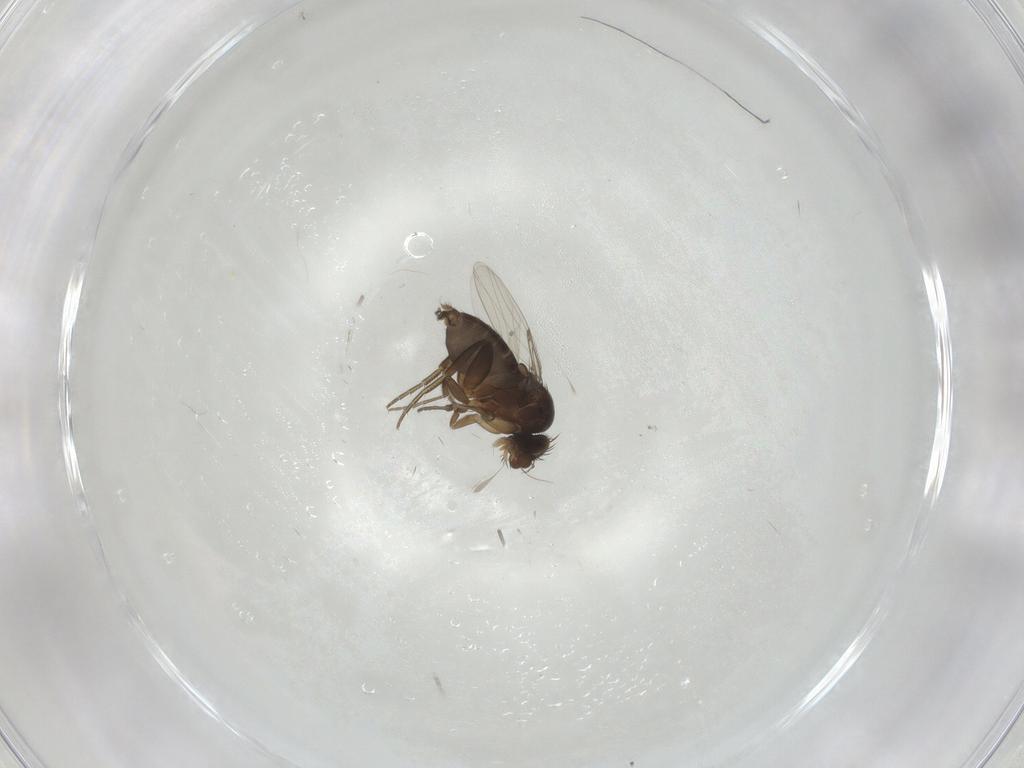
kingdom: Animalia
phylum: Arthropoda
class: Insecta
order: Diptera
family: Phoridae
